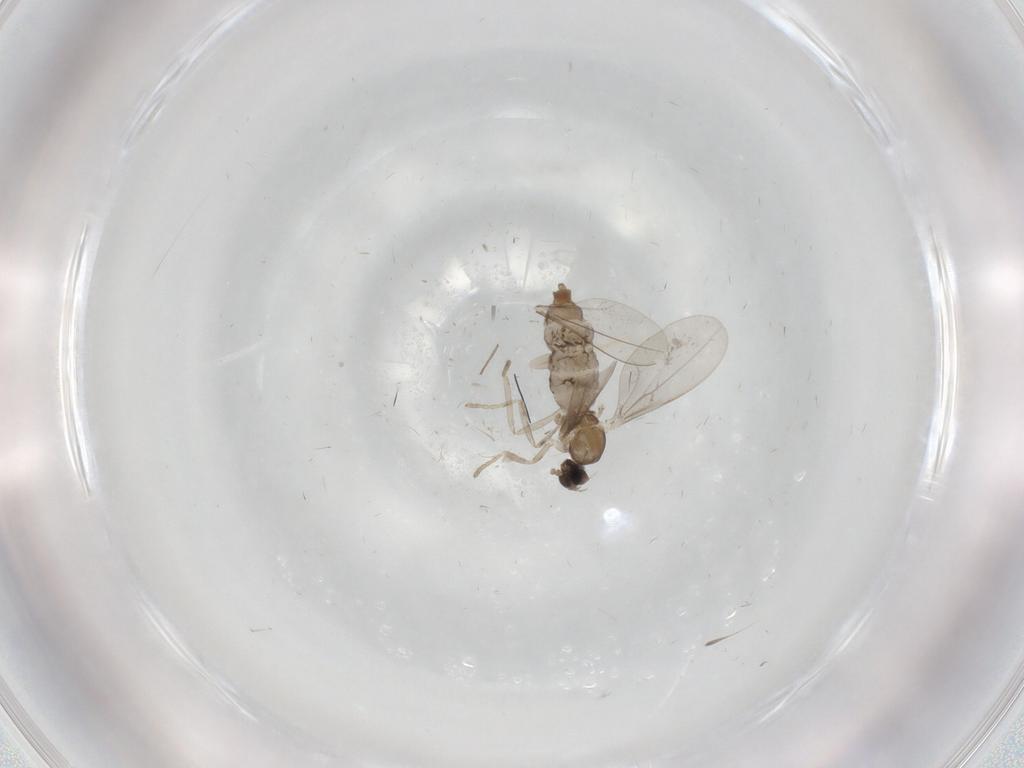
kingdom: Animalia
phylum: Arthropoda
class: Insecta
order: Diptera
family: Cecidomyiidae
